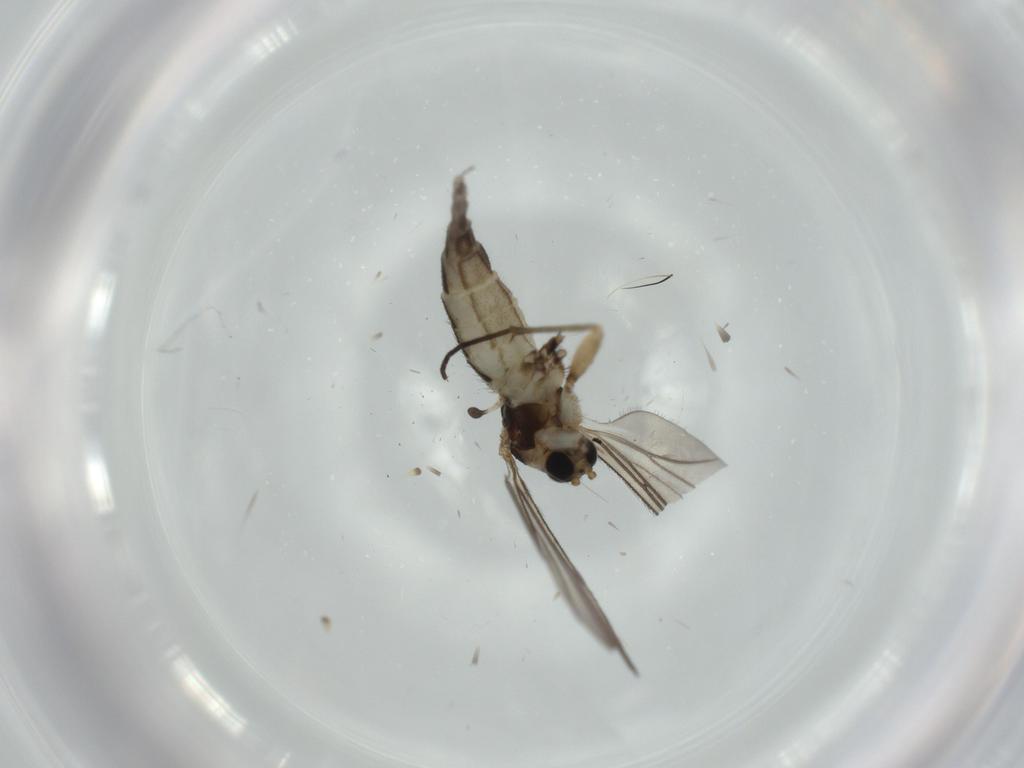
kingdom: Animalia
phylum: Arthropoda
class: Insecta
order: Diptera
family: Sciaridae
